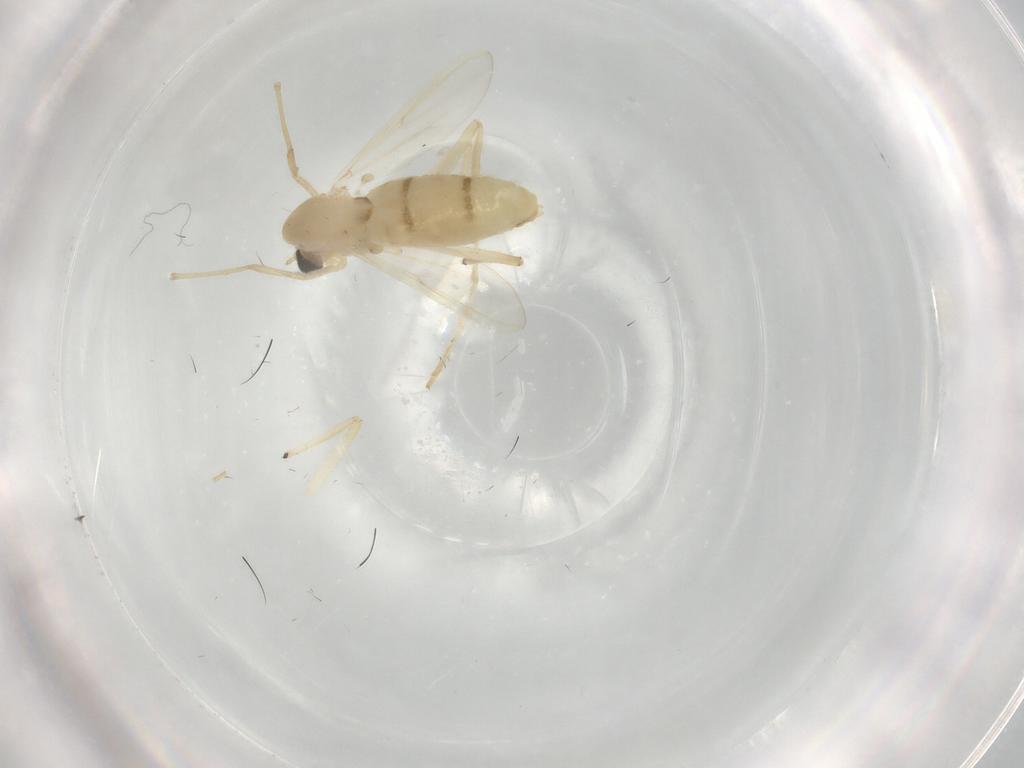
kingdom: Animalia
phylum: Arthropoda
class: Insecta
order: Diptera
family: Chironomidae
